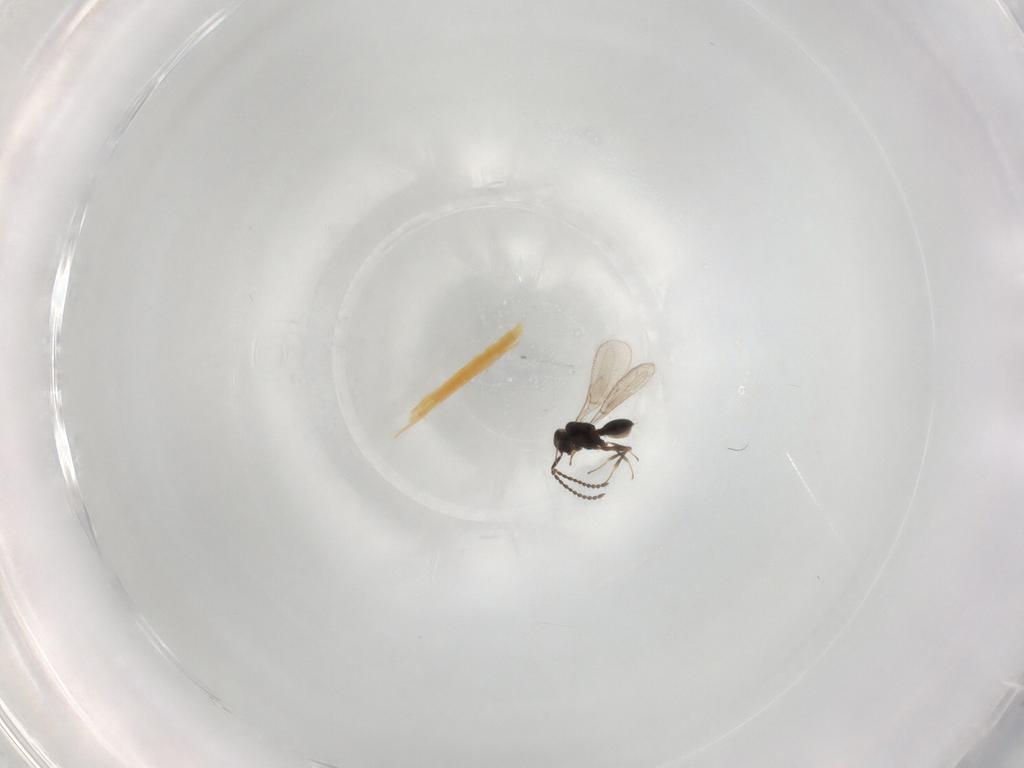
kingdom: Animalia
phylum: Arthropoda
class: Insecta
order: Hymenoptera
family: Scelionidae
